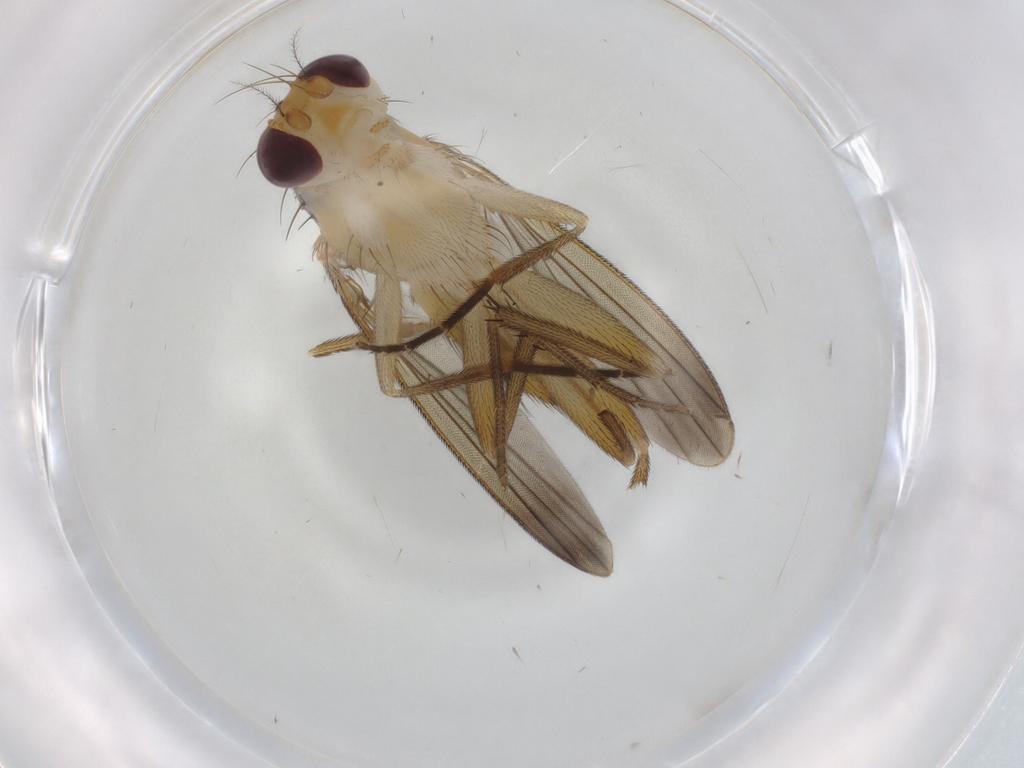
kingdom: Animalia
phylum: Arthropoda
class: Insecta
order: Diptera
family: Clusiidae
